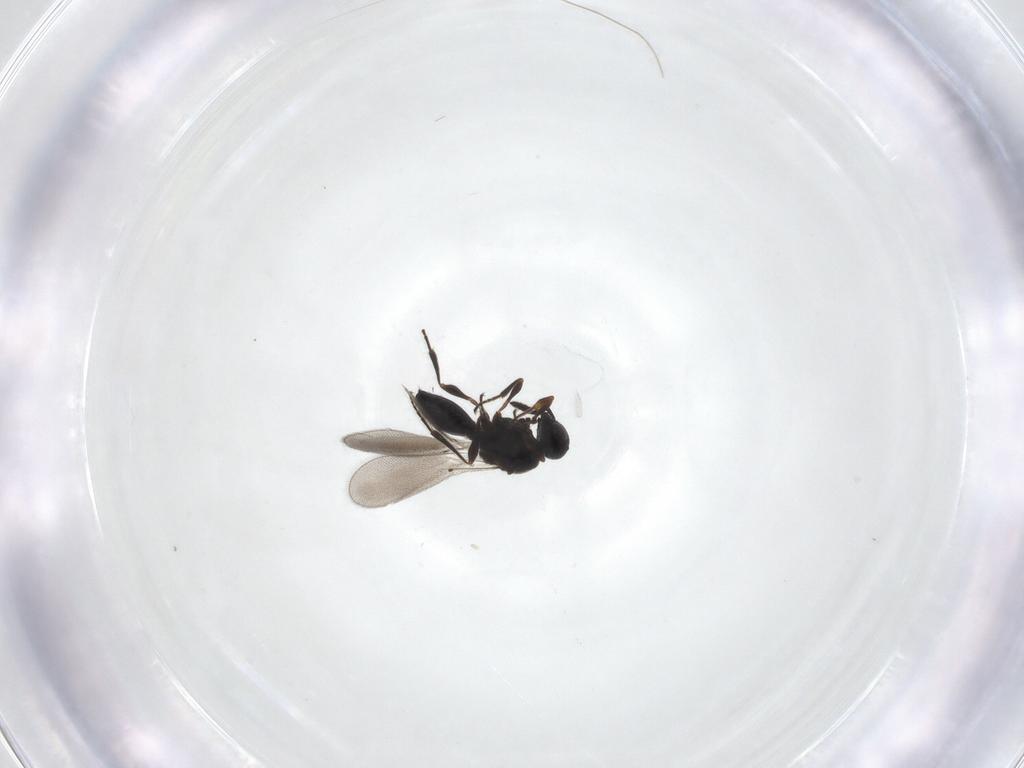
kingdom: Animalia
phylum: Arthropoda
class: Insecta
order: Hymenoptera
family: Platygastridae
